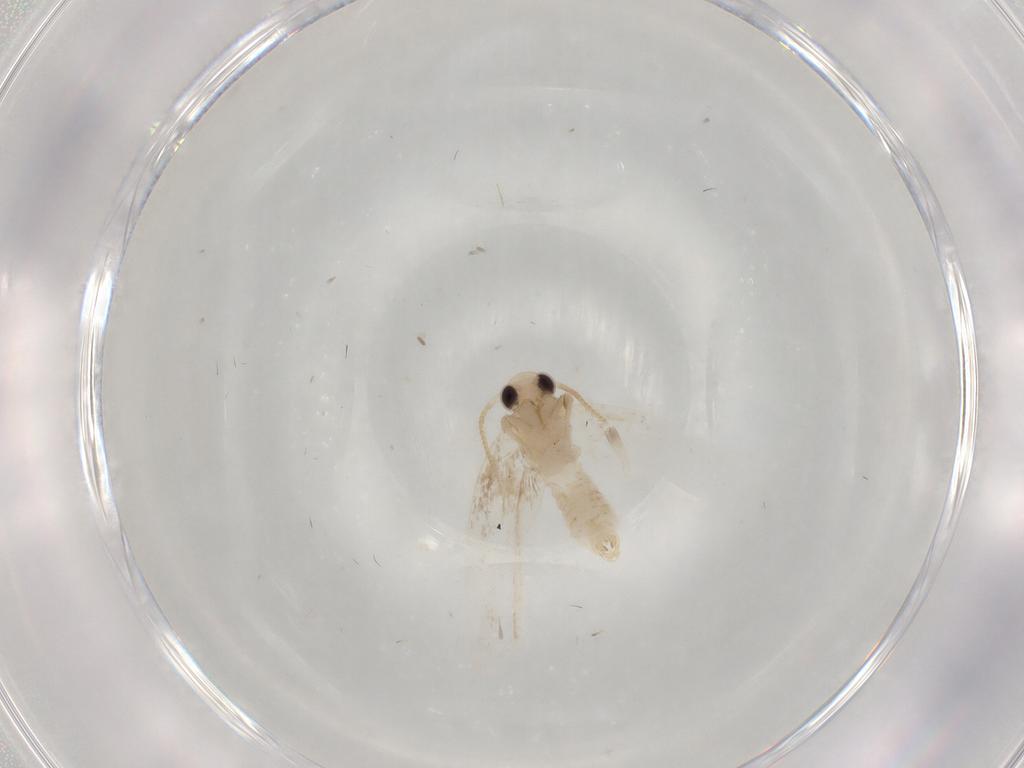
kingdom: Animalia
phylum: Arthropoda
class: Insecta
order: Lepidoptera
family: Psychidae
